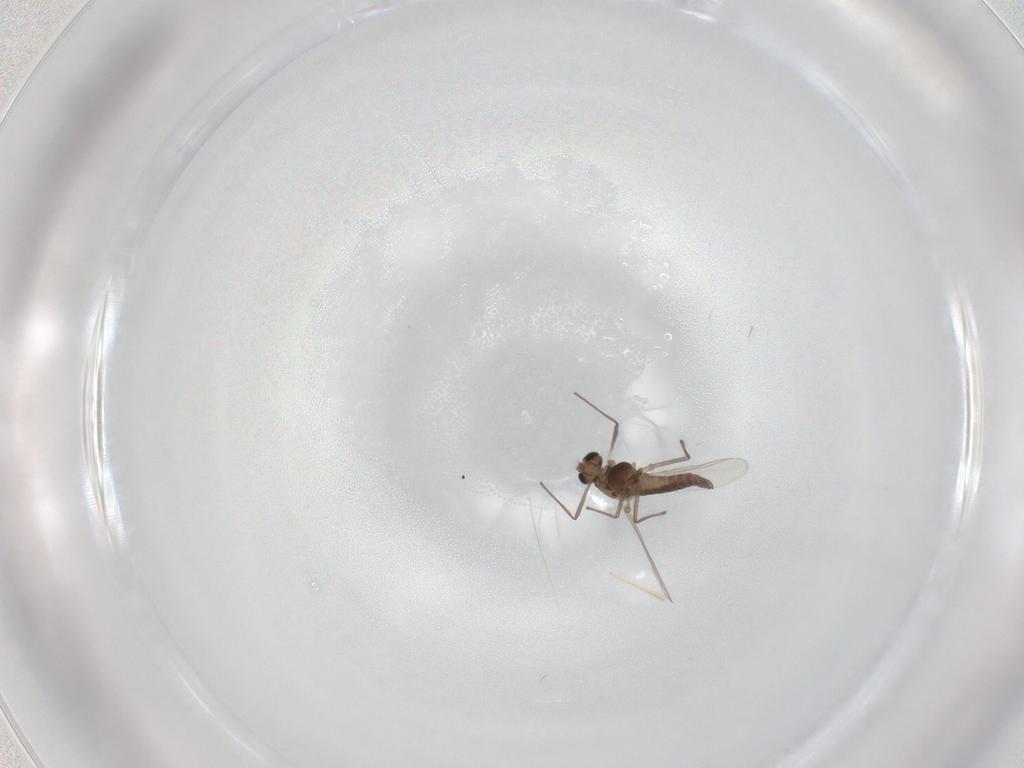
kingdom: Animalia
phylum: Arthropoda
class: Insecta
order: Diptera
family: Chironomidae
